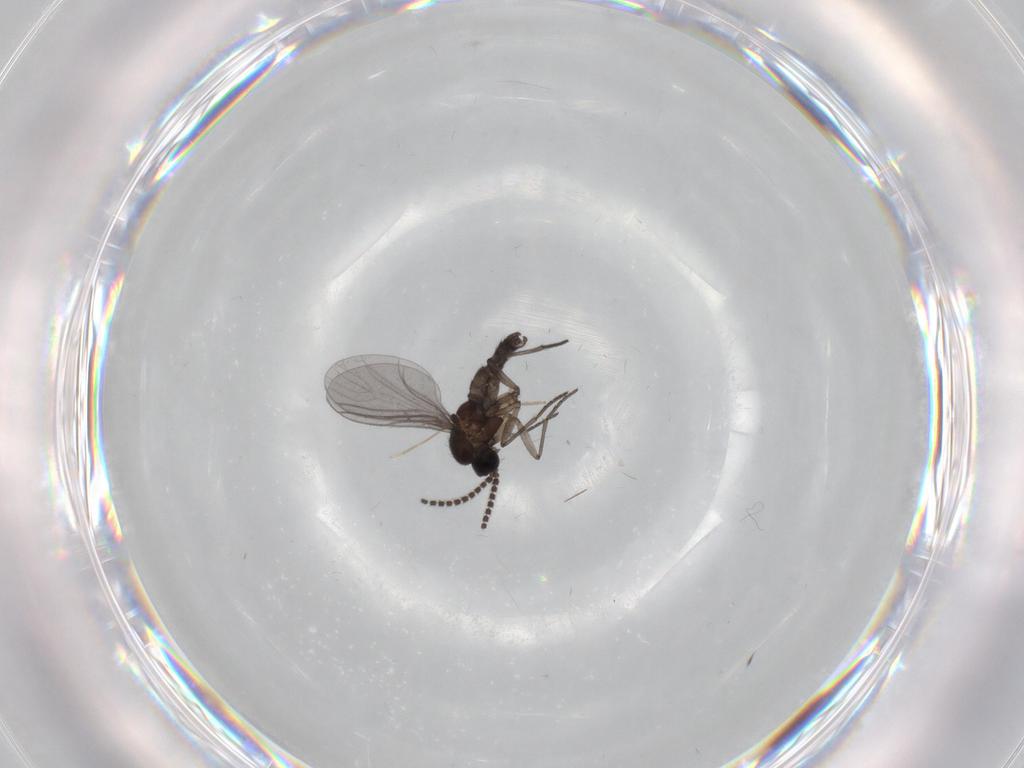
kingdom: Animalia
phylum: Arthropoda
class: Insecta
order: Diptera
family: Chironomidae
